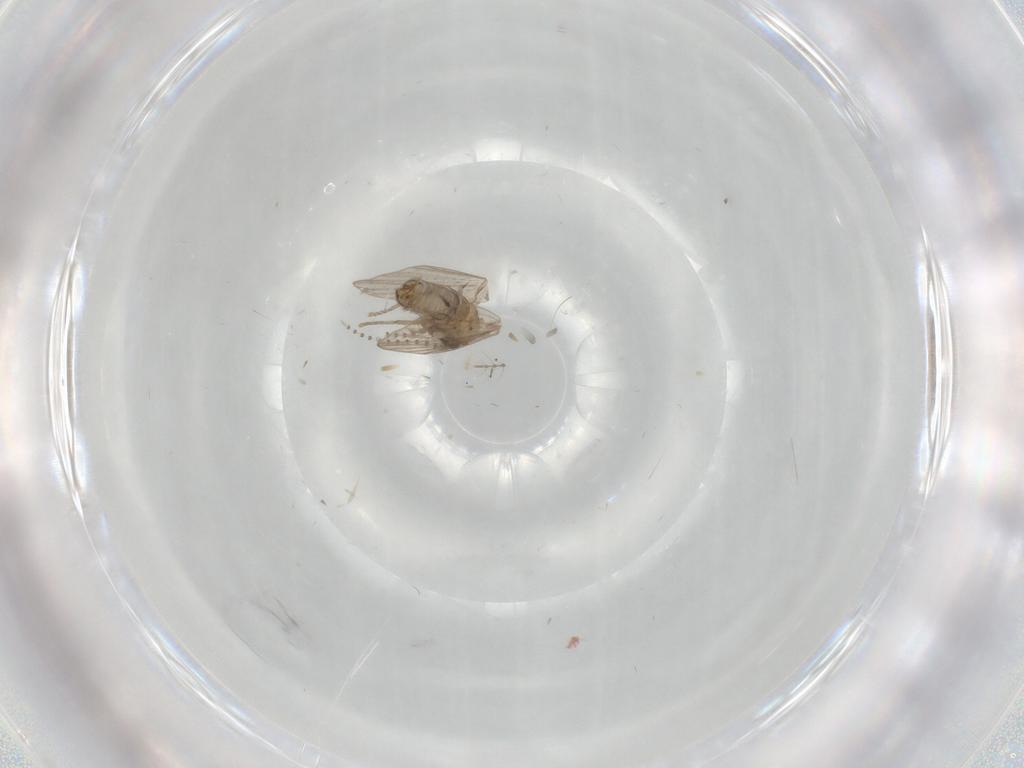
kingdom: Animalia
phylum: Arthropoda
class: Insecta
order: Diptera
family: Psychodidae
